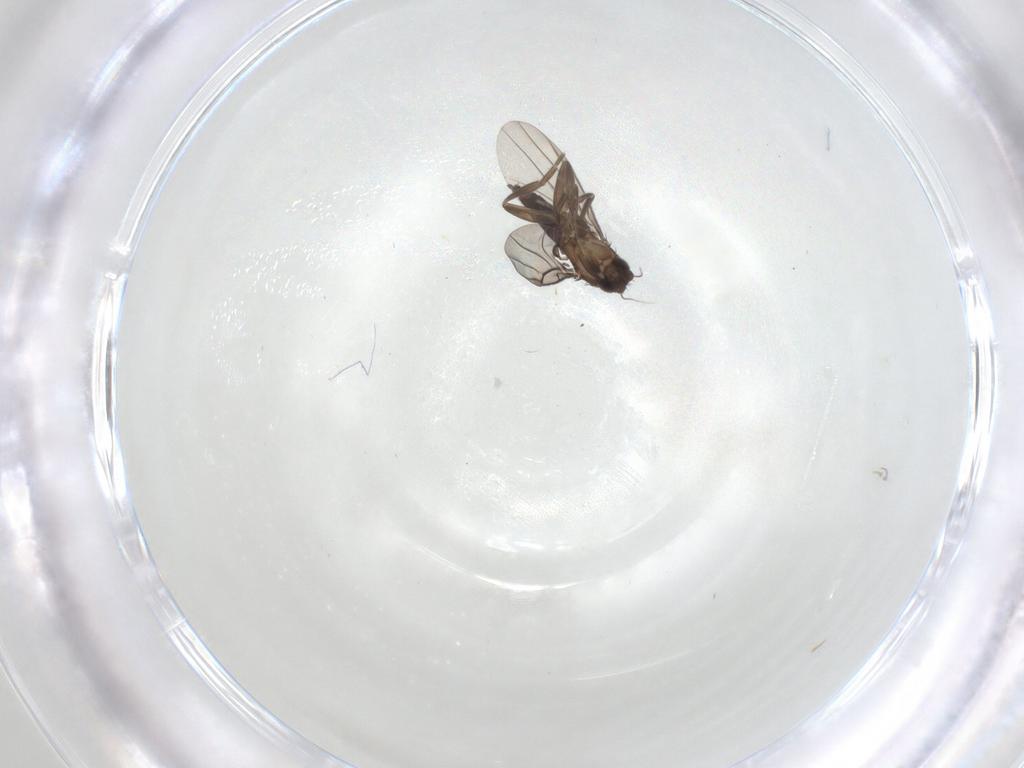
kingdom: Animalia
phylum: Arthropoda
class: Insecta
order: Diptera
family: Phoridae
